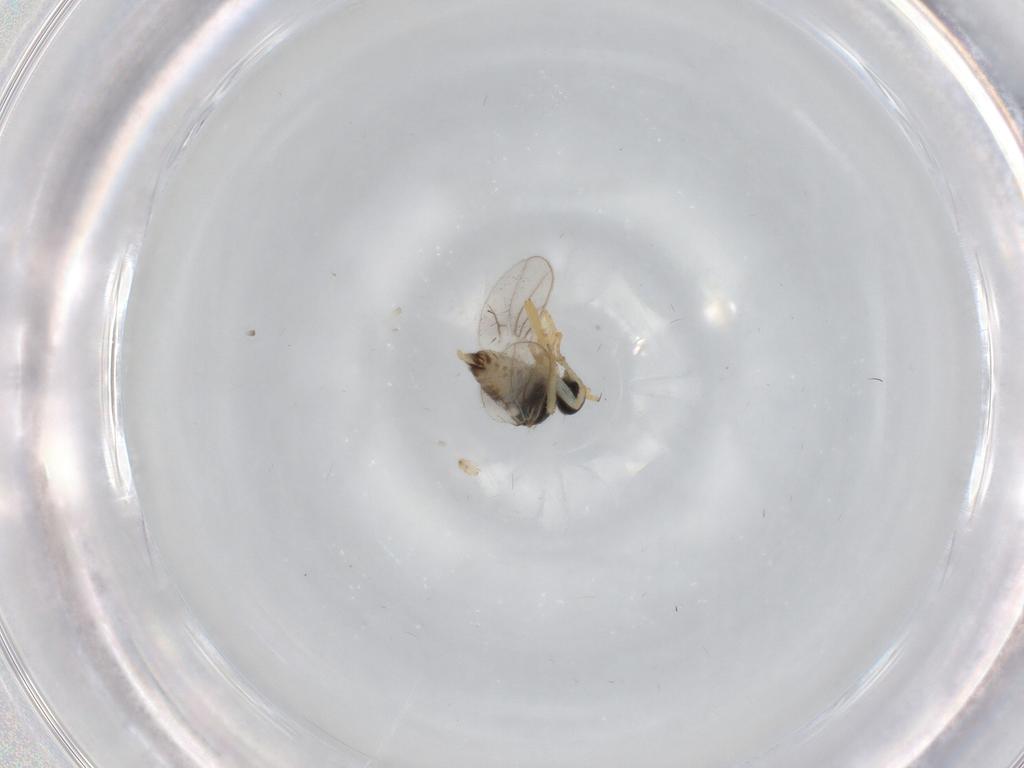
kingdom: Animalia
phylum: Arthropoda
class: Insecta
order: Diptera
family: Hybotidae
